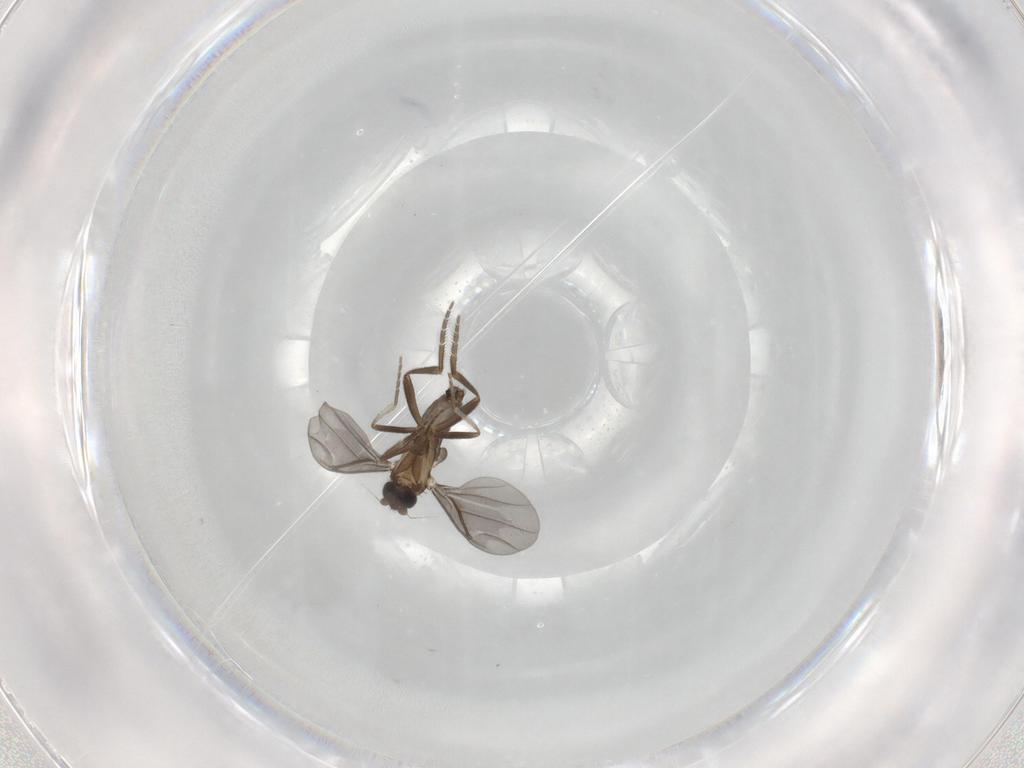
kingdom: Animalia
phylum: Arthropoda
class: Insecta
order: Diptera
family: Phoridae
